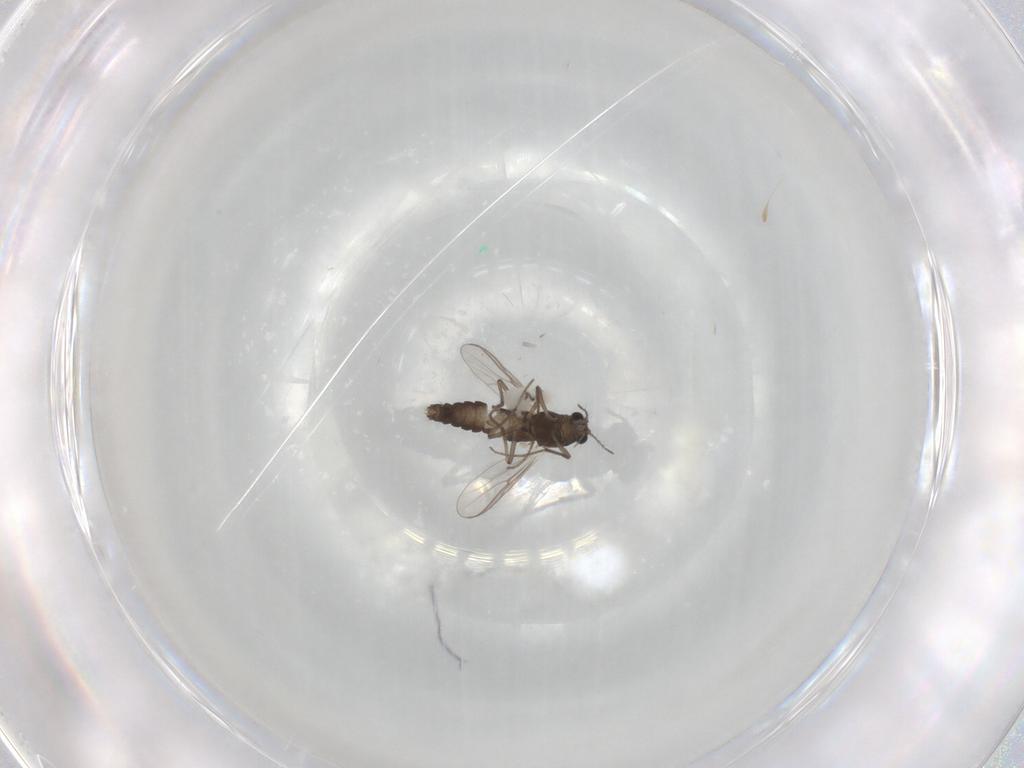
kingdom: Animalia
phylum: Arthropoda
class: Insecta
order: Diptera
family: Chironomidae
